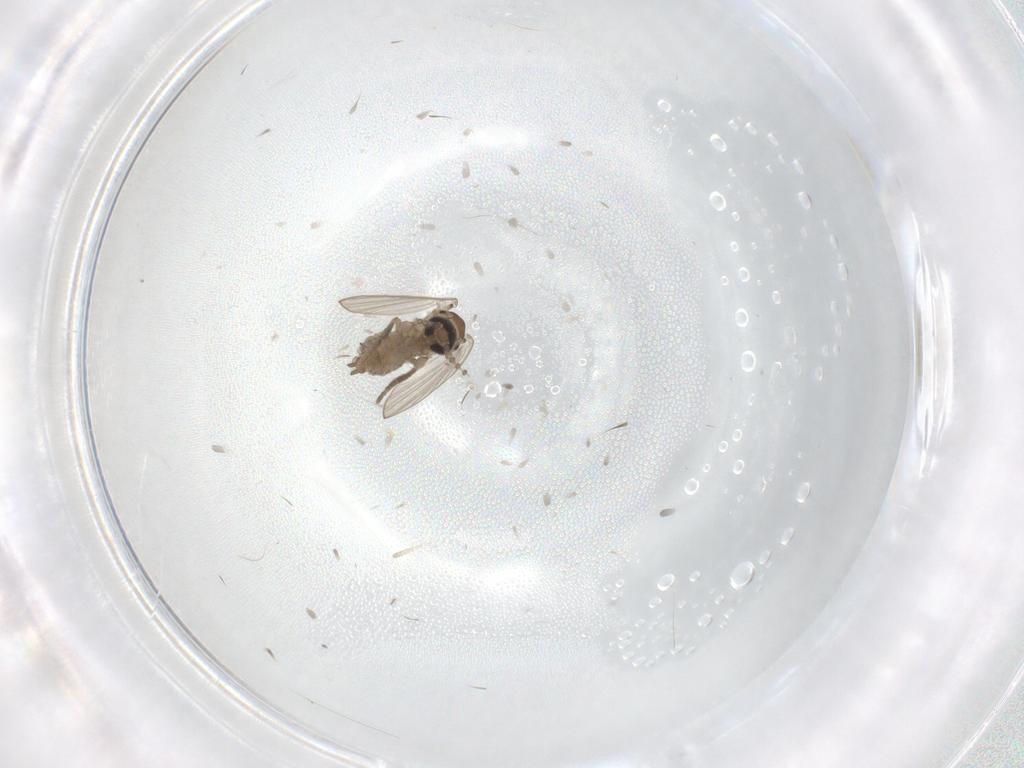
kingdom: Animalia
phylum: Arthropoda
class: Insecta
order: Diptera
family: Psychodidae
